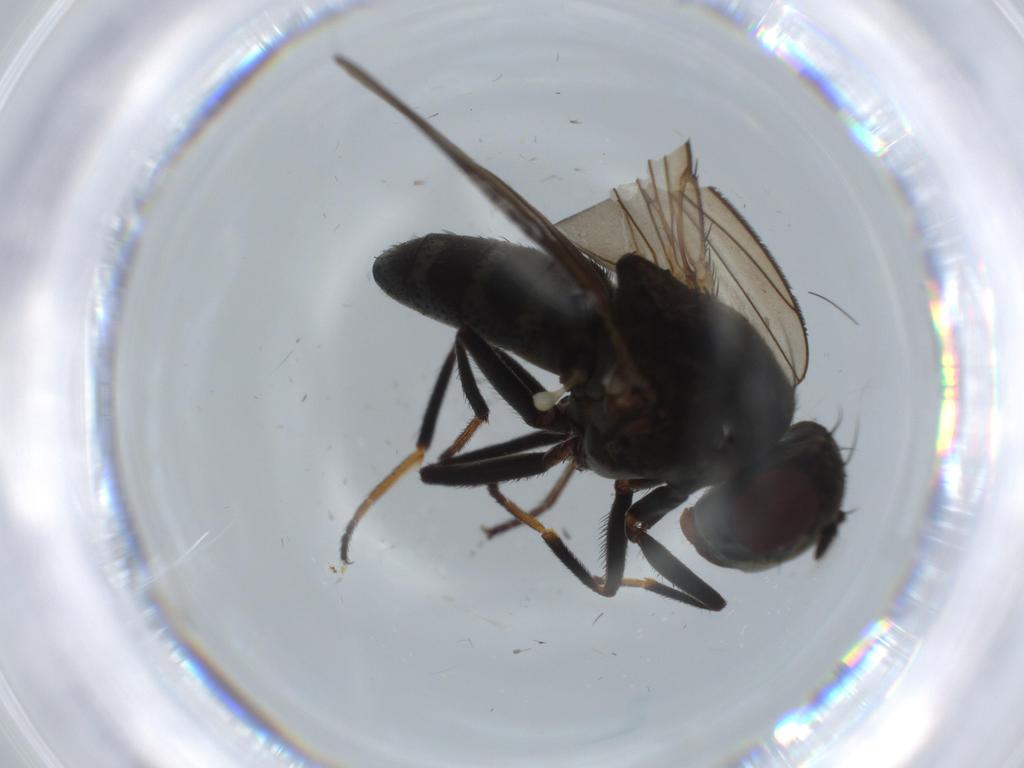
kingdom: Animalia
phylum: Arthropoda
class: Insecta
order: Diptera
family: Ephydridae
